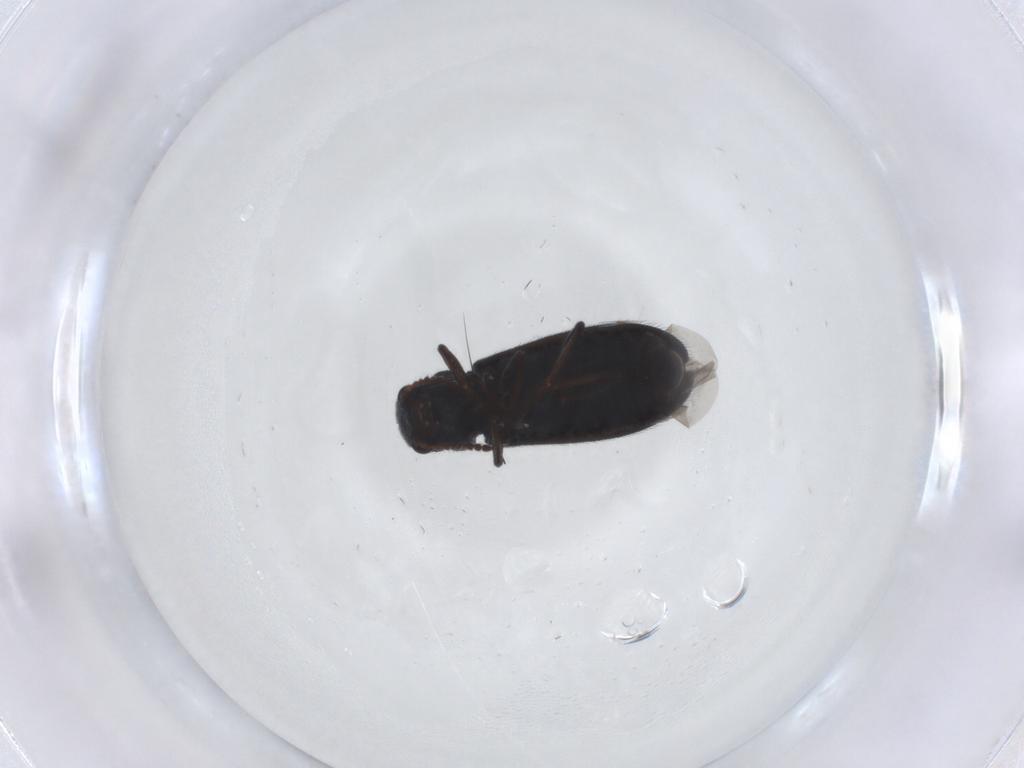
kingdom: Animalia
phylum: Arthropoda
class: Insecta
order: Coleoptera
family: Melyridae
